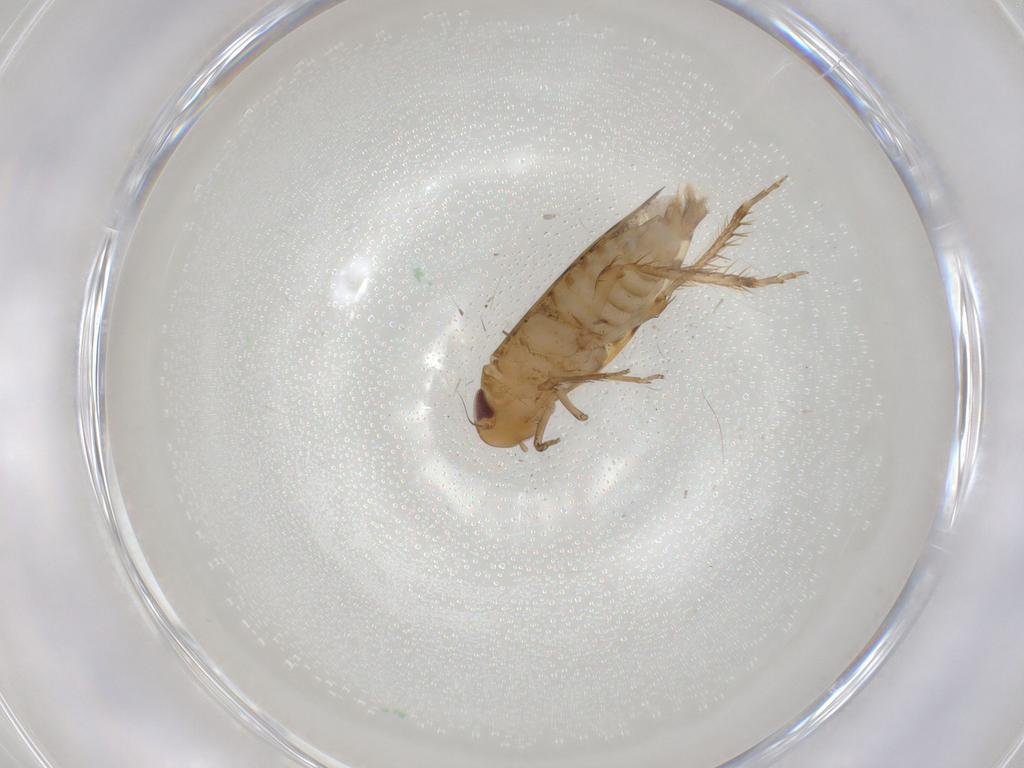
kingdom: Animalia
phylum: Arthropoda
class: Insecta
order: Hemiptera
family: Cicadellidae
